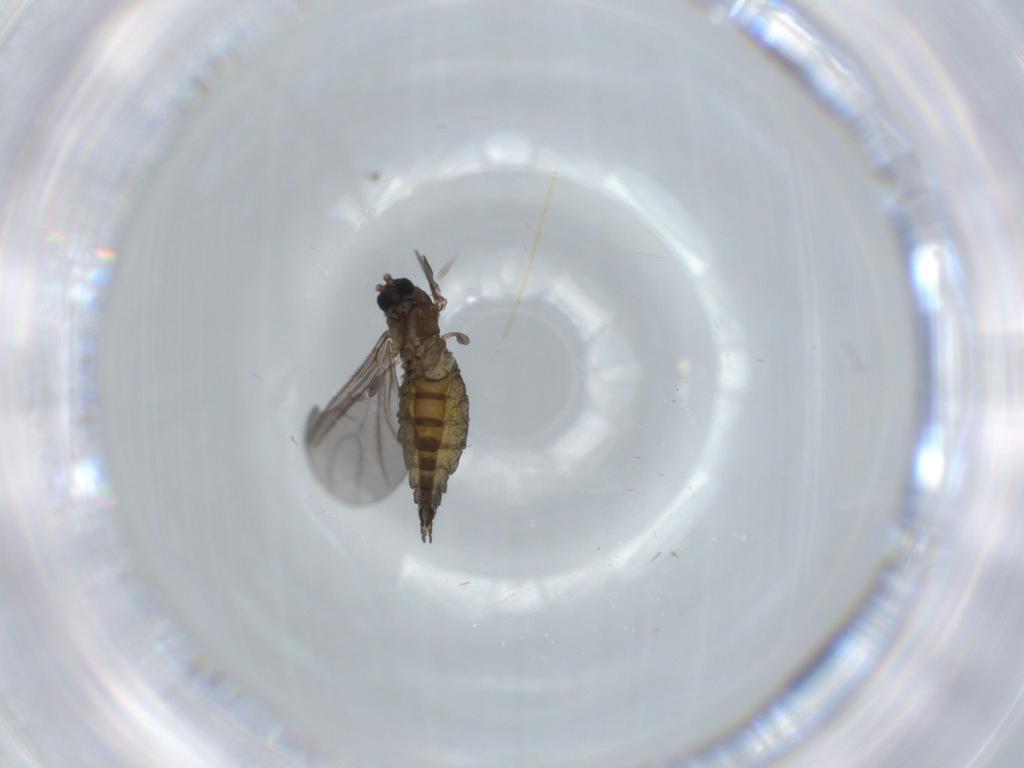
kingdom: Animalia
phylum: Arthropoda
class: Insecta
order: Diptera
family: Sciaridae
